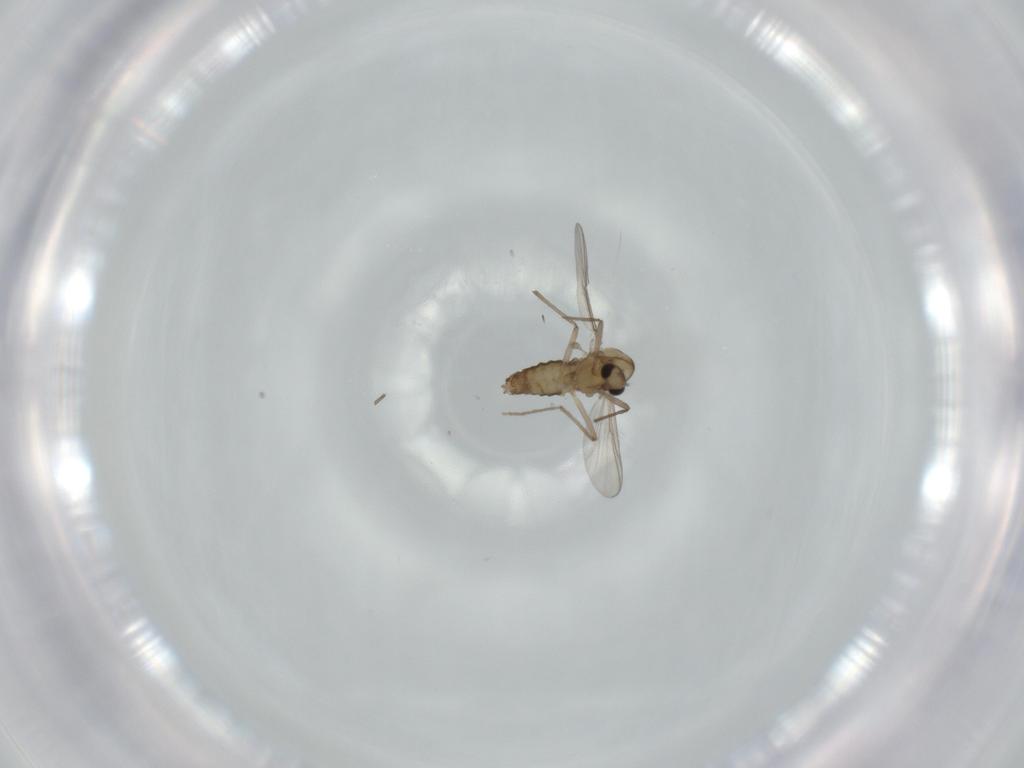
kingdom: Animalia
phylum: Arthropoda
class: Insecta
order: Diptera
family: Chironomidae
